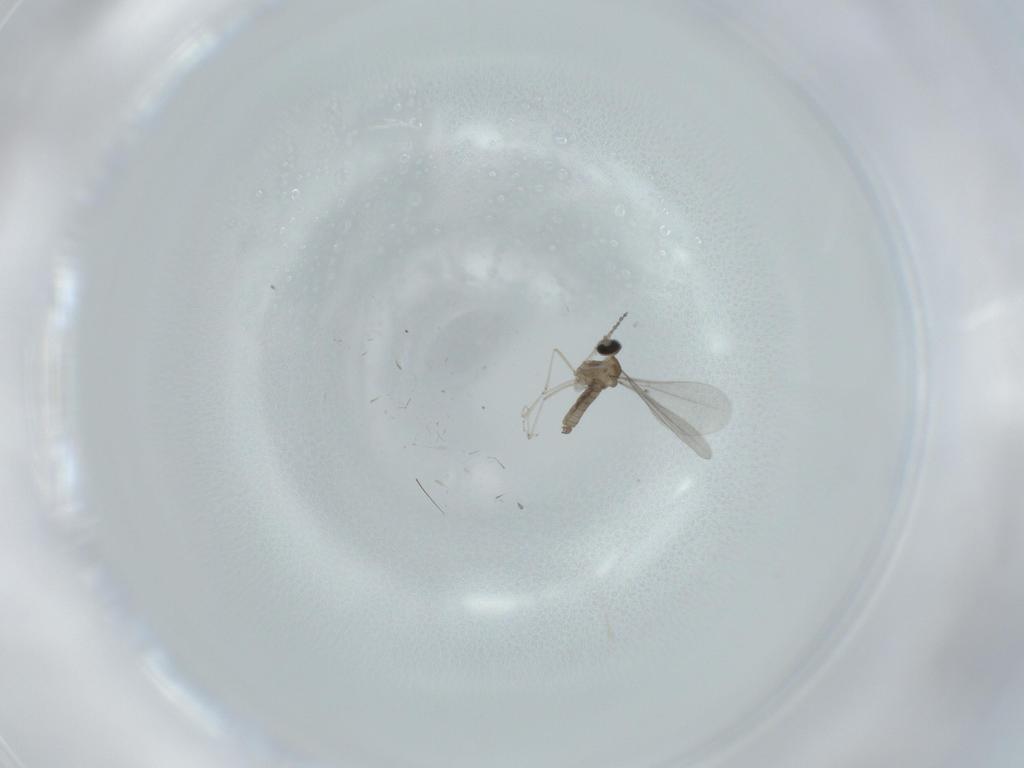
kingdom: Animalia
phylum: Arthropoda
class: Insecta
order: Diptera
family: Cecidomyiidae
